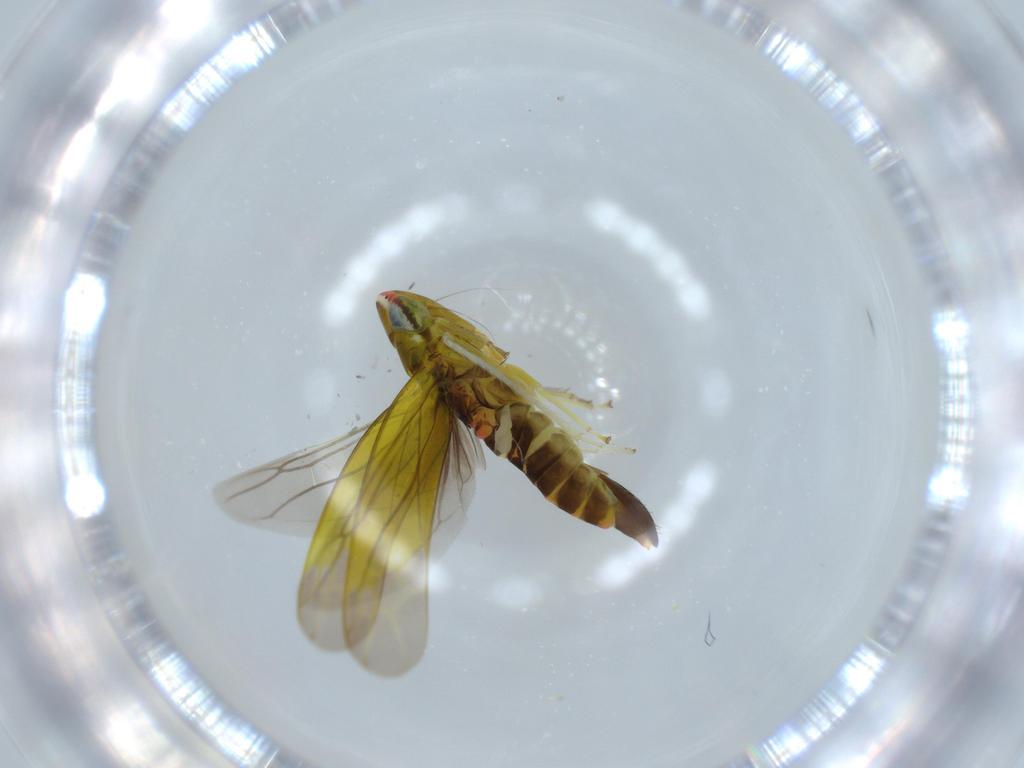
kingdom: Animalia
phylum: Arthropoda
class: Insecta
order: Hemiptera
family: Cicadellidae
